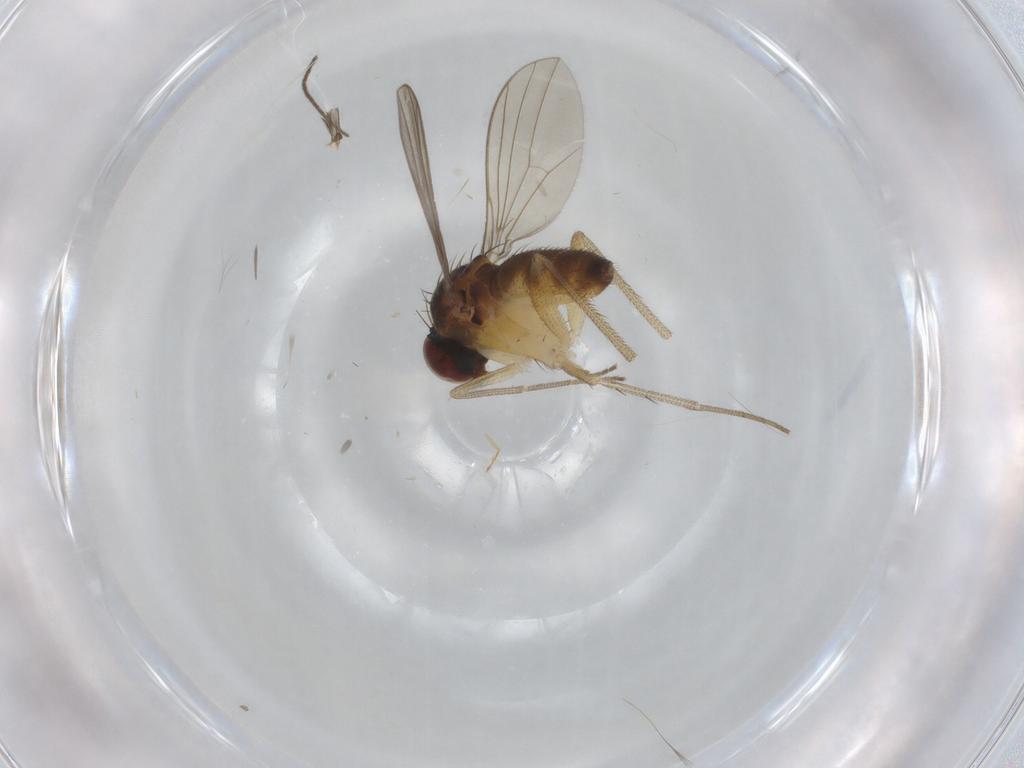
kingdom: Animalia
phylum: Arthropoda
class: Insecta
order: Diptera
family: Dolichopodidae
